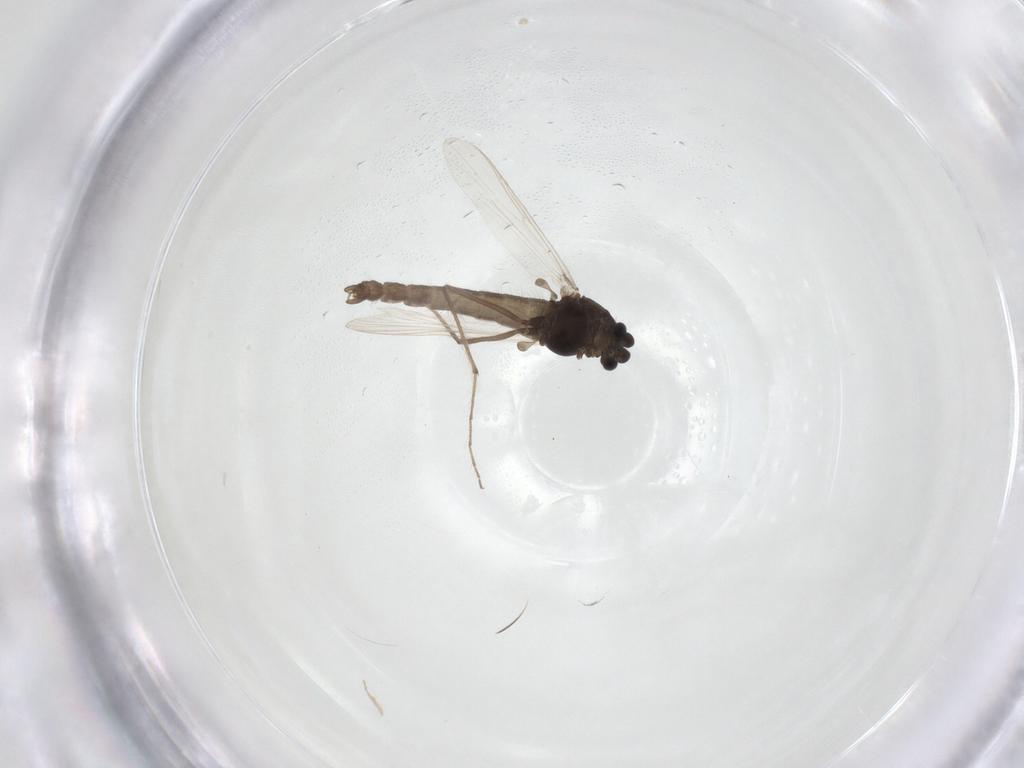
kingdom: Animalia
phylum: Arthropoda
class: Insecta
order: Diptera
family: Chironomidae
